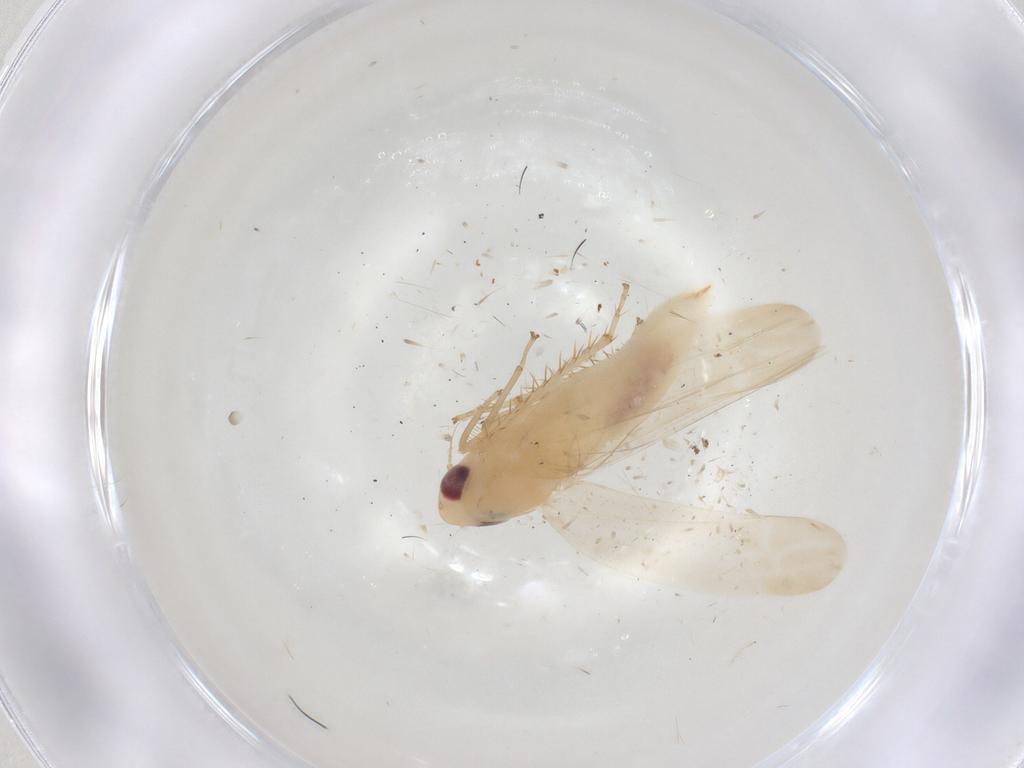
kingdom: Animalia
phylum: Arthropoda
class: Insecta
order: Hemiptera
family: Cicadellidae
